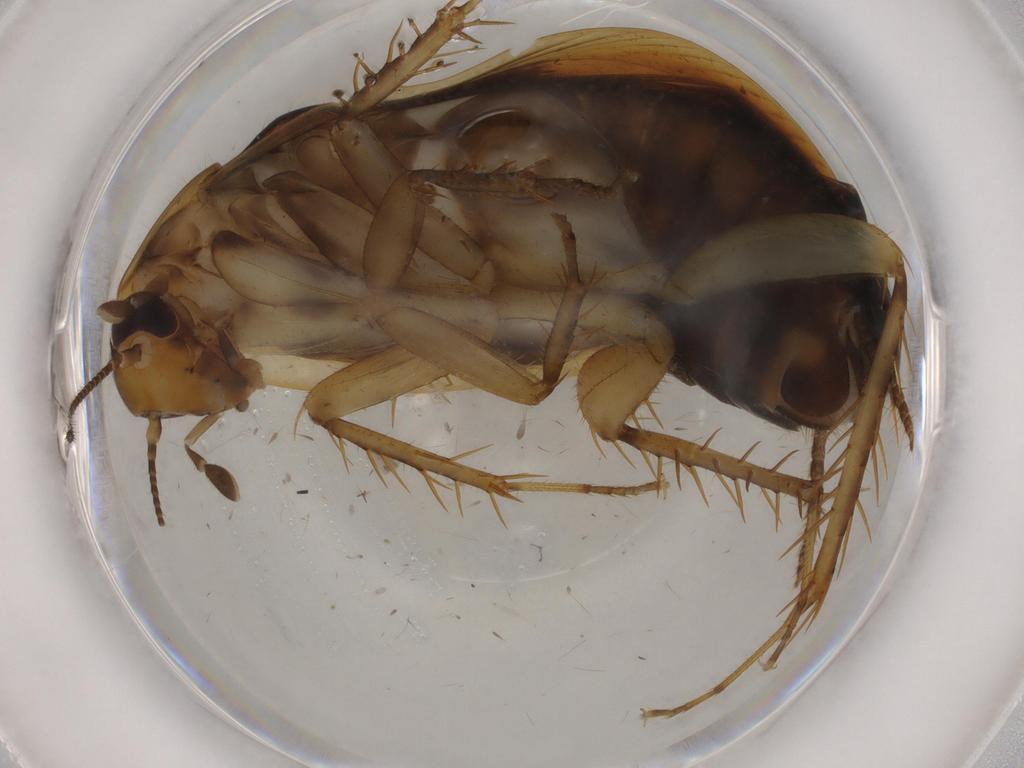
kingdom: Animalia
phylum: Arthropoda
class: Insecta
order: Blattodea
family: Ectobiidae
